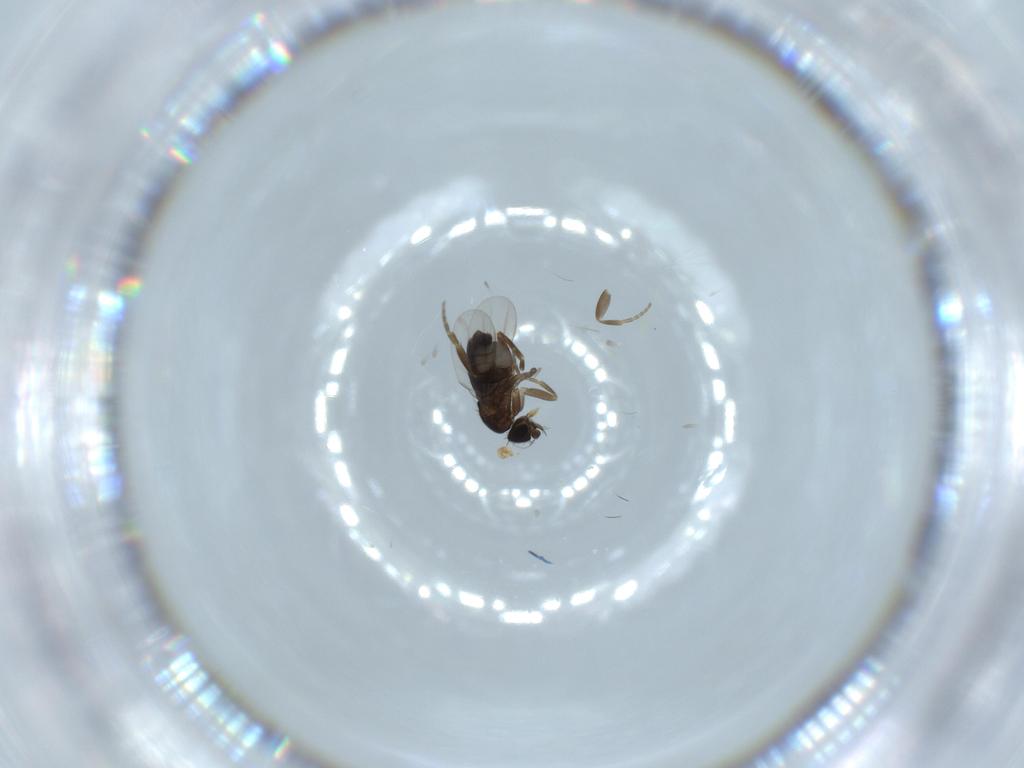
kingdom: Animalia
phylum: Arthropoda
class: Insecta
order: Diptera
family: Phoridae
